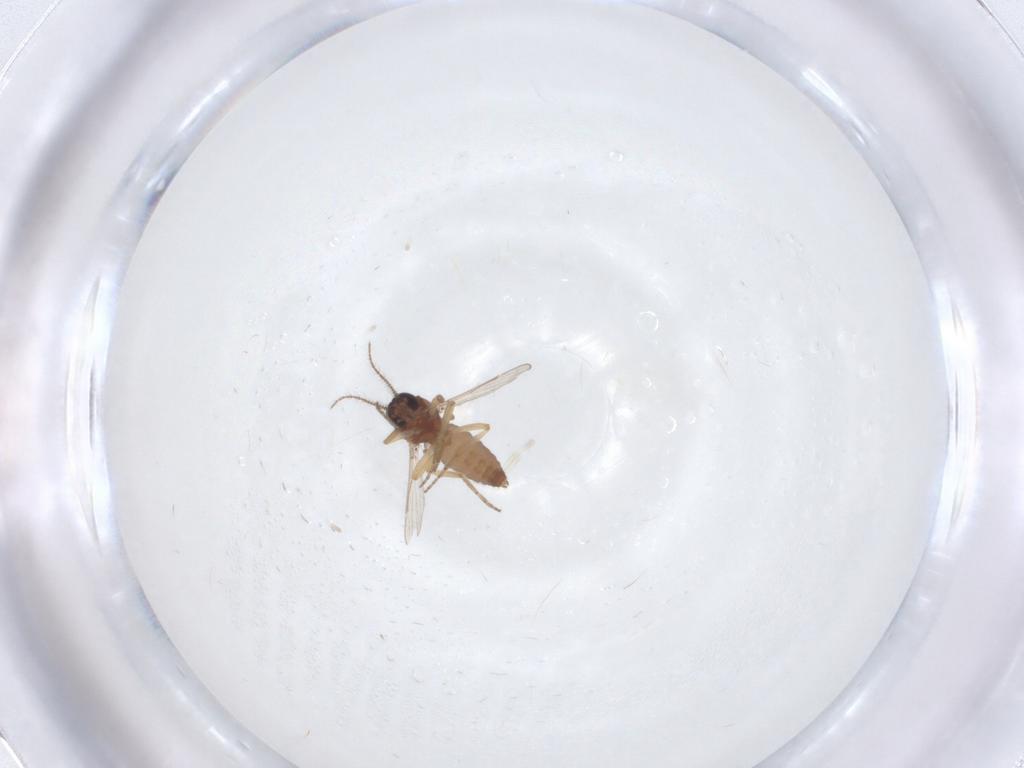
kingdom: Animalia
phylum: Arthropoda
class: Insecta
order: Diptera
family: Ceratopogonidae
